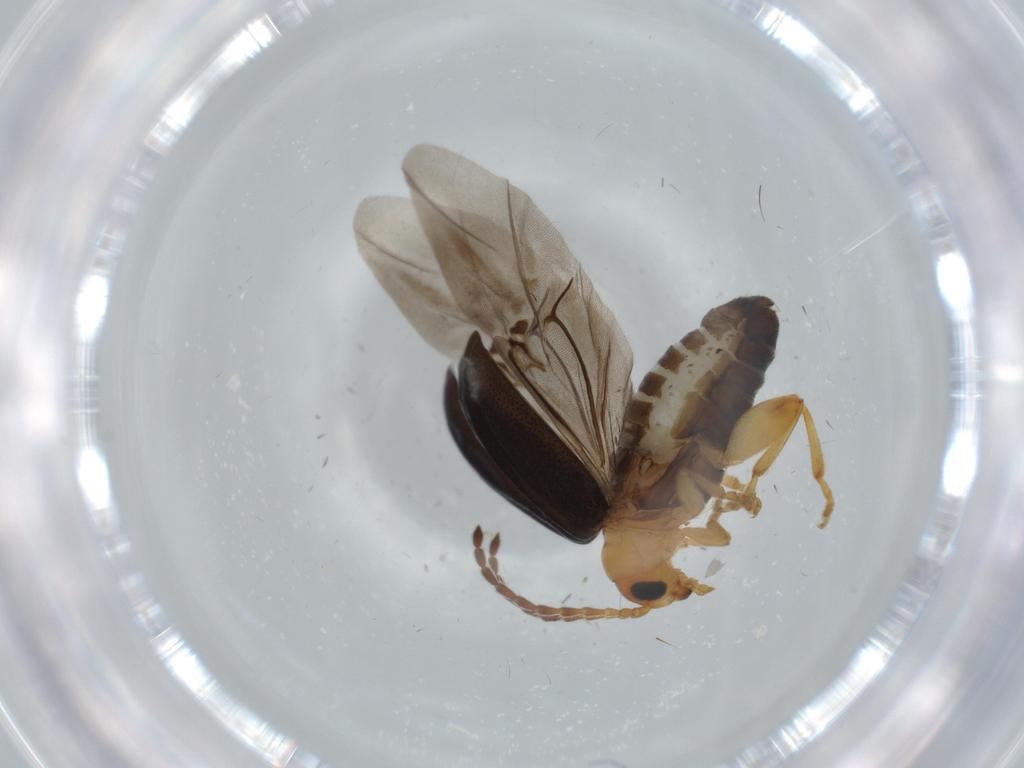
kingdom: Animalia
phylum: Arthropoda
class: Insecta
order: Coleoptera
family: Chrysomelidae
